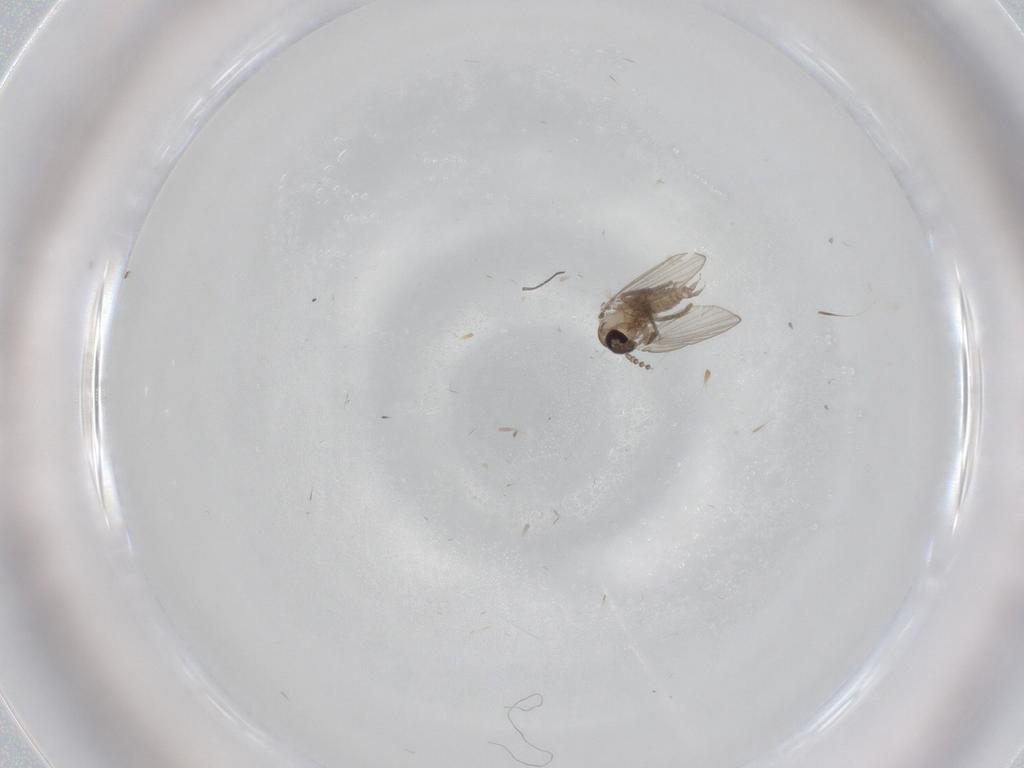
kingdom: Animalia
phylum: Arthropoda
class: Insecta
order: Diptera
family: Psychodidae
